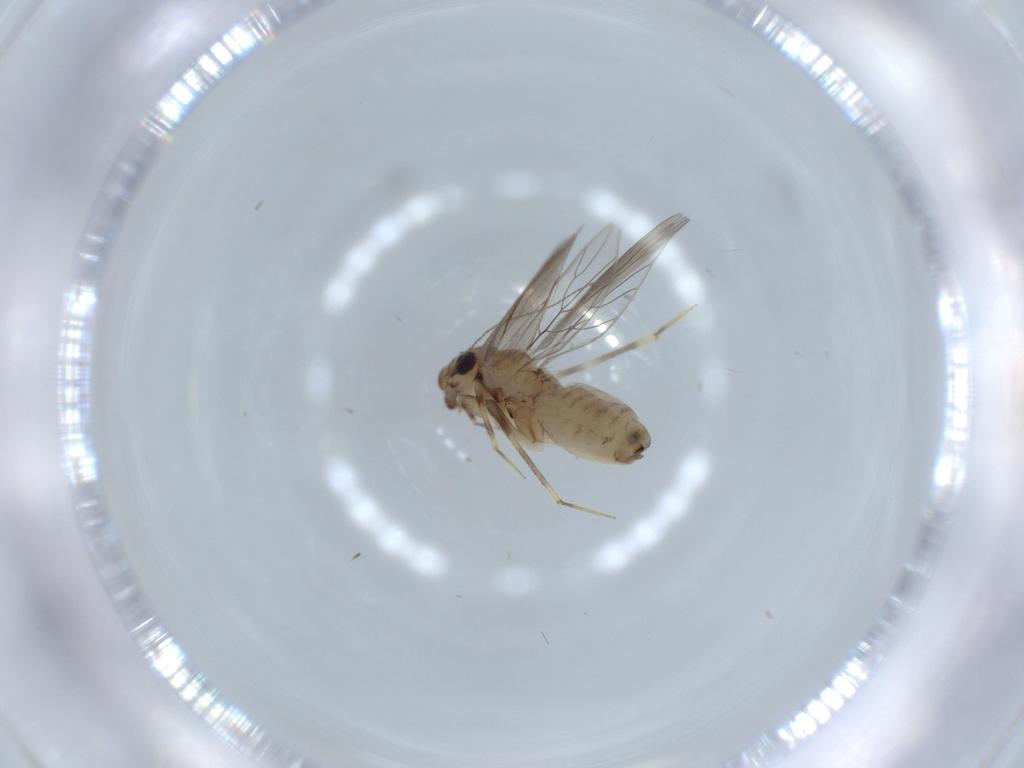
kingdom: Animalia
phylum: Arthropoda
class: Insecta
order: Psocodea
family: Lepidopsocidae
